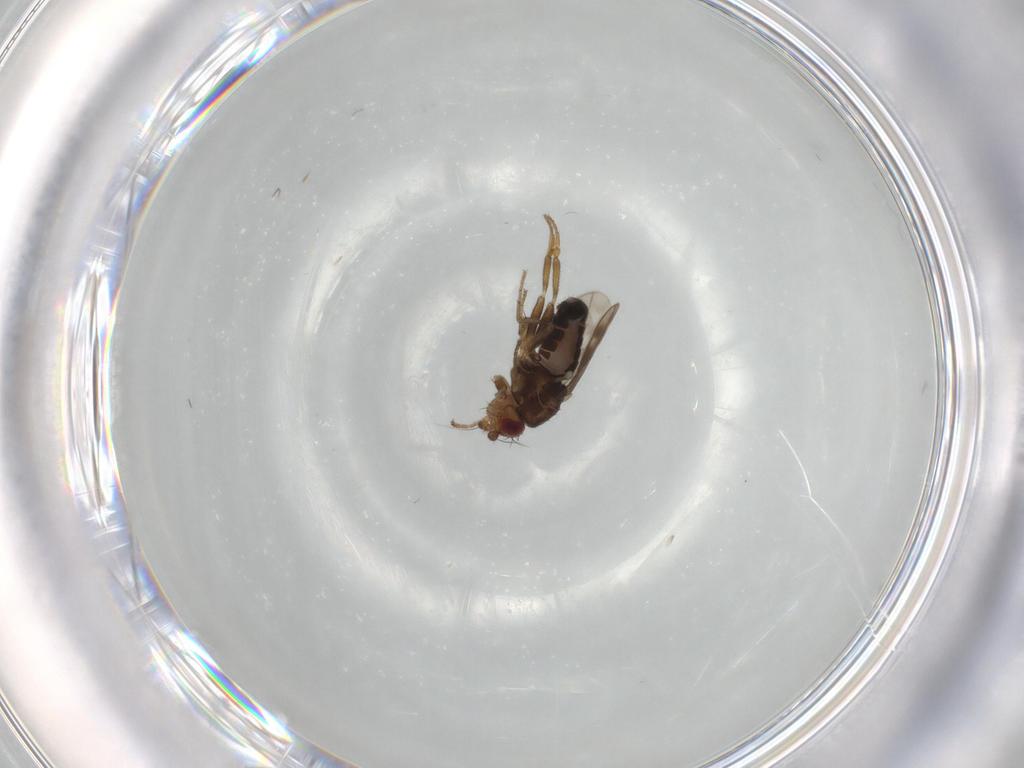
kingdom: Animalia
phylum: Arthropoda
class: Insecta
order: Diptera
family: Sphaeroceridae
